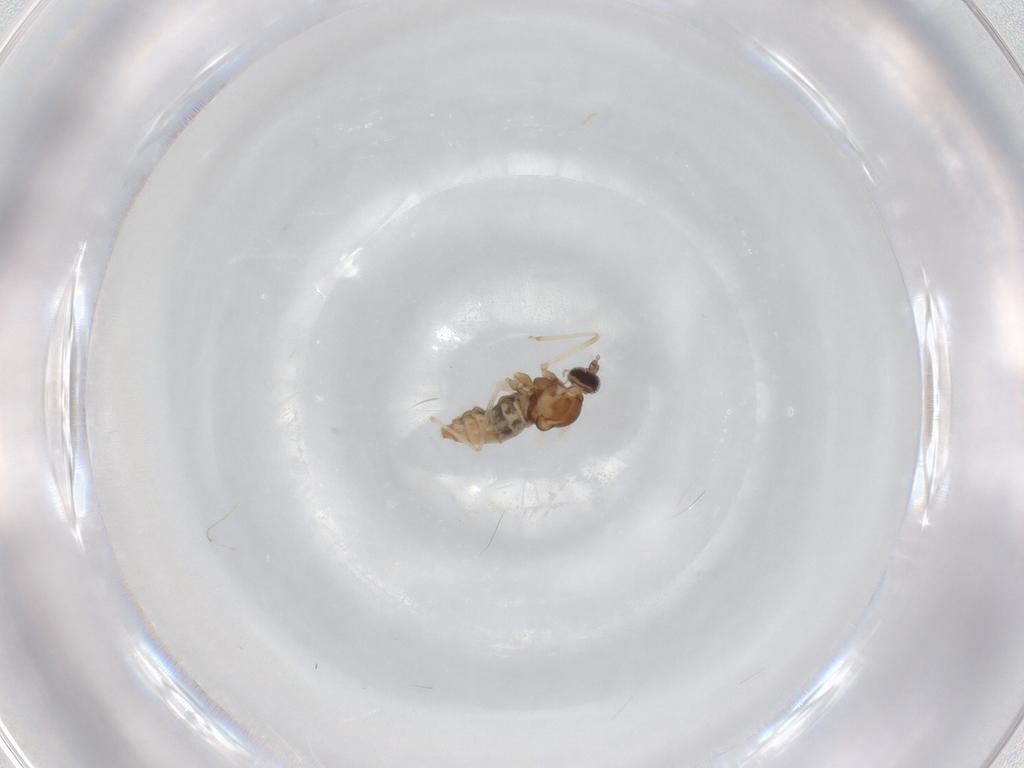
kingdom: Animalia
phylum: Arthropoda
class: Insecta
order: Diptera
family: Cecidomyiidae
